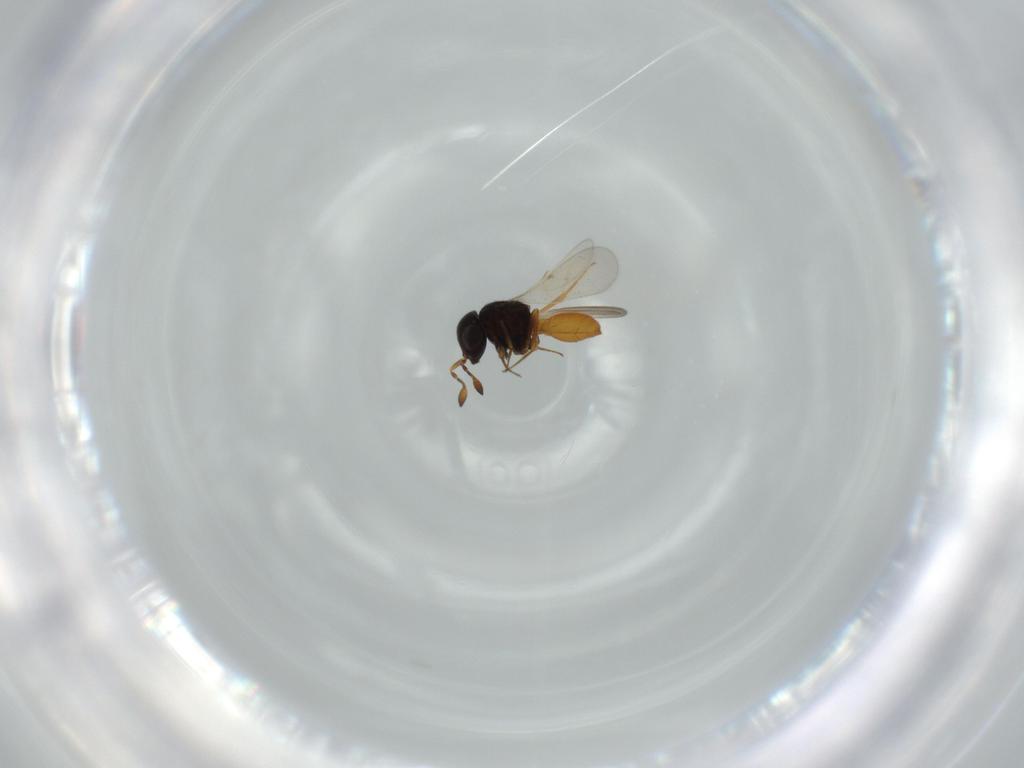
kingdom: Animalia
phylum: Arthropoda
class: Insecta
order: Hymenoptera
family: Scelionidae
